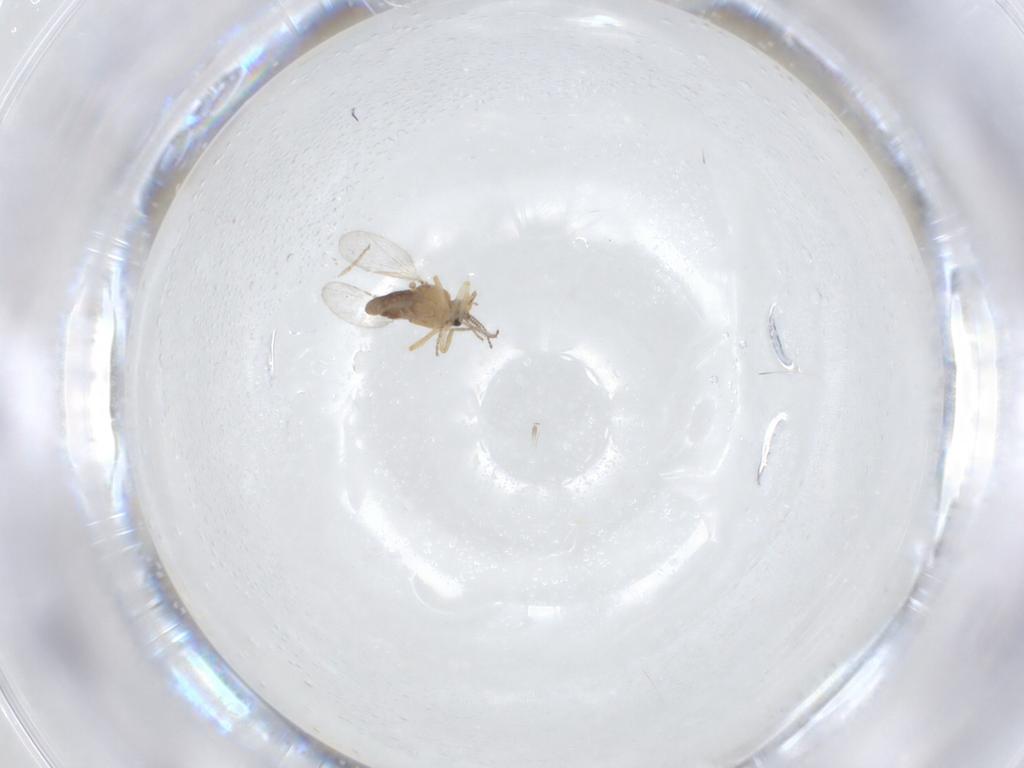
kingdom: Animalia
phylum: Arthropoda
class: Insecta
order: Diptera
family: Ceratopogonidae
